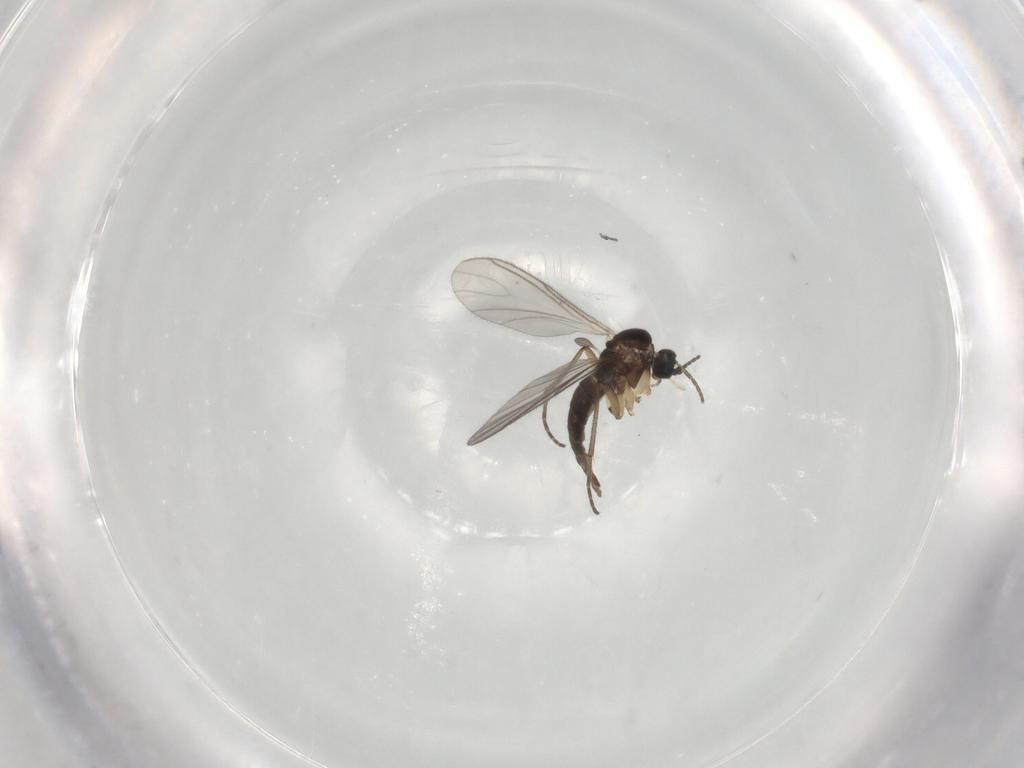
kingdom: Animalia
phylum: Arthropoda
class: Insecta
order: Diptera
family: Sciaridae
